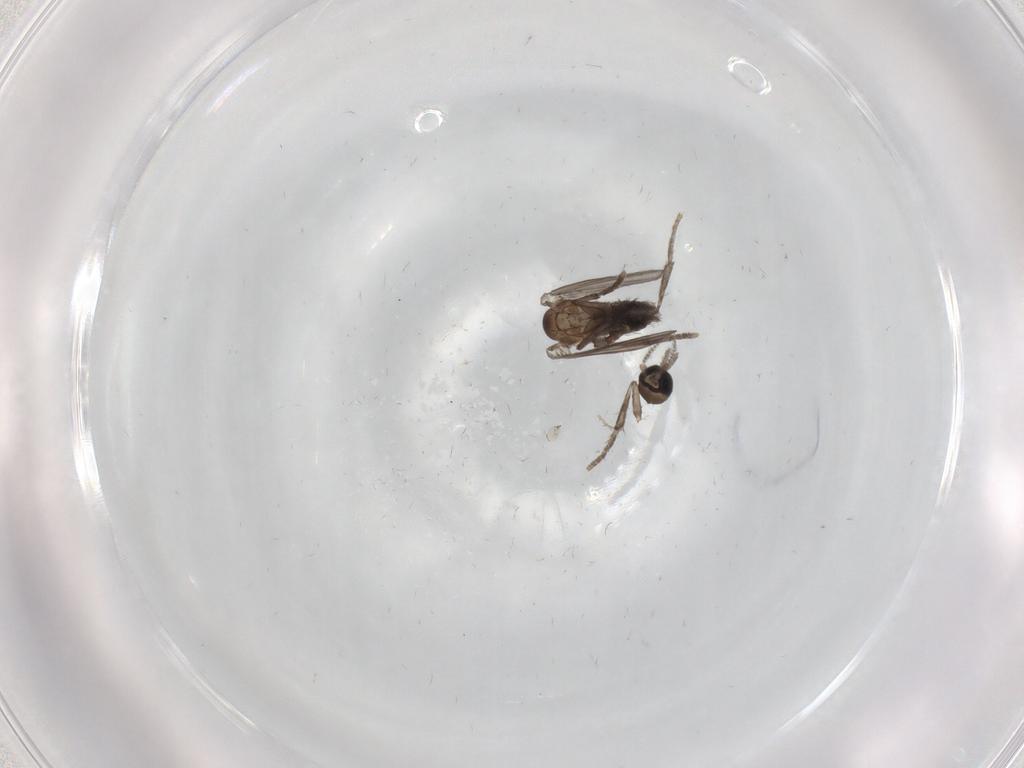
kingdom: Animalia
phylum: Arthropoda
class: Insecta
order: Diptera
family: Psychodidae
